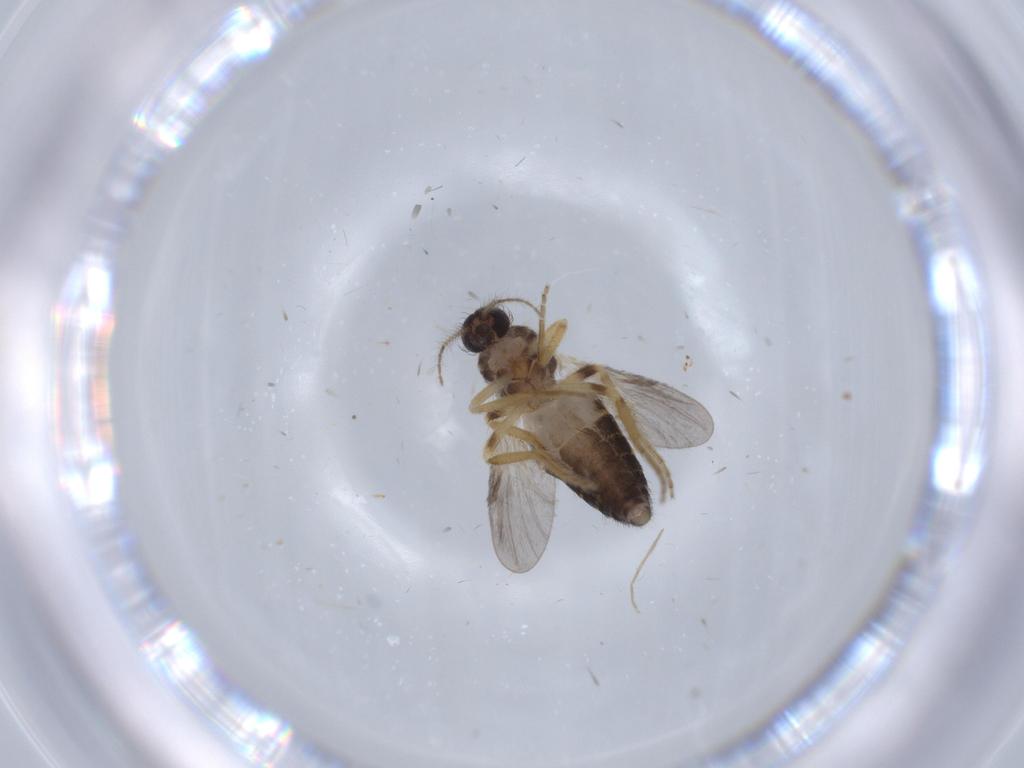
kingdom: Animalia
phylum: Arthropoda
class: Insecta
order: Diptera
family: Ceratopogonidae
